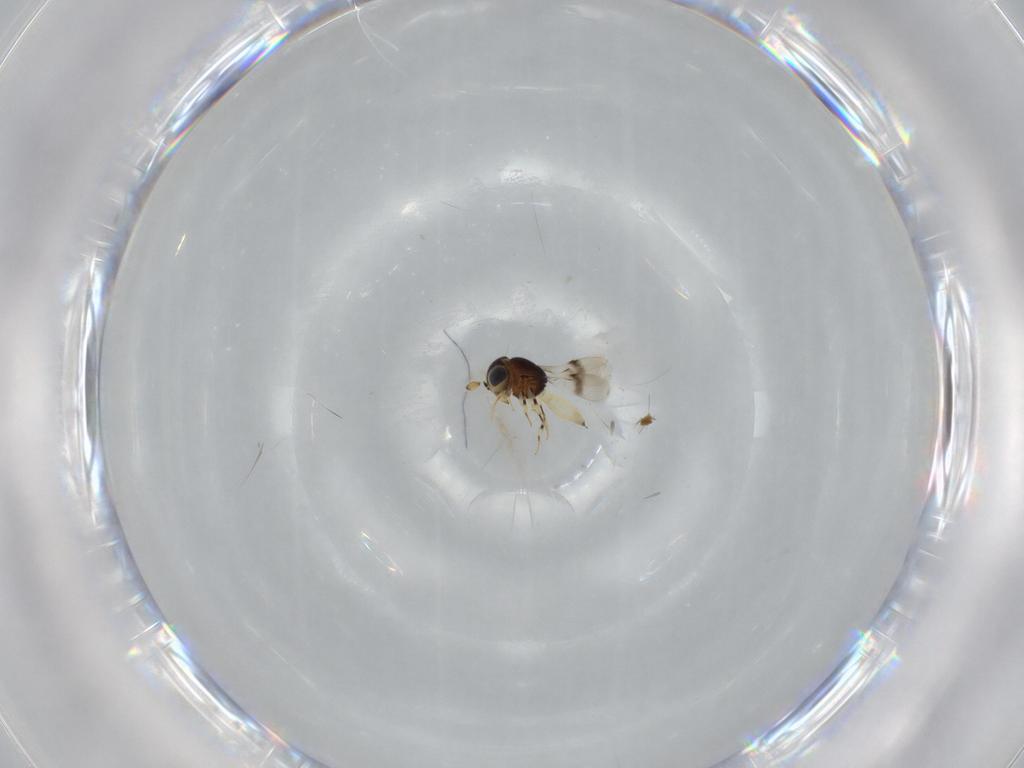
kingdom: Animalia
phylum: Arthropoda
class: Insecta
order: Hymenoptera
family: Scelionidae
